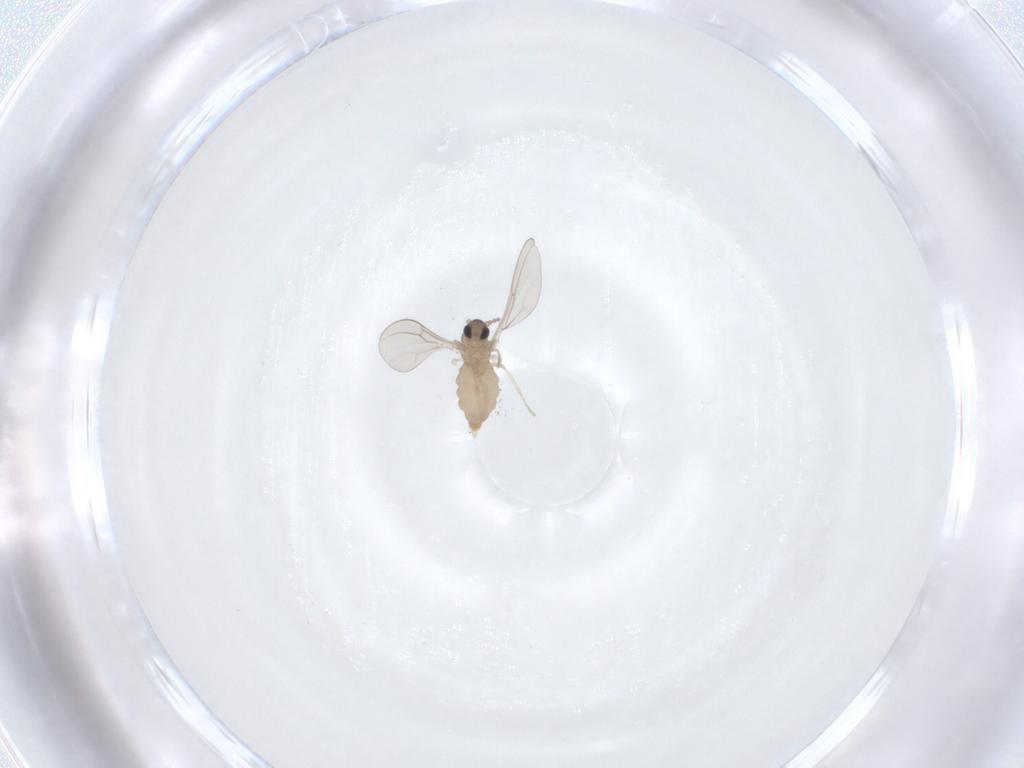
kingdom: Animalia
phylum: Arthropoda
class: Insecta
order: Diptera
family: Cecidomyiidae
